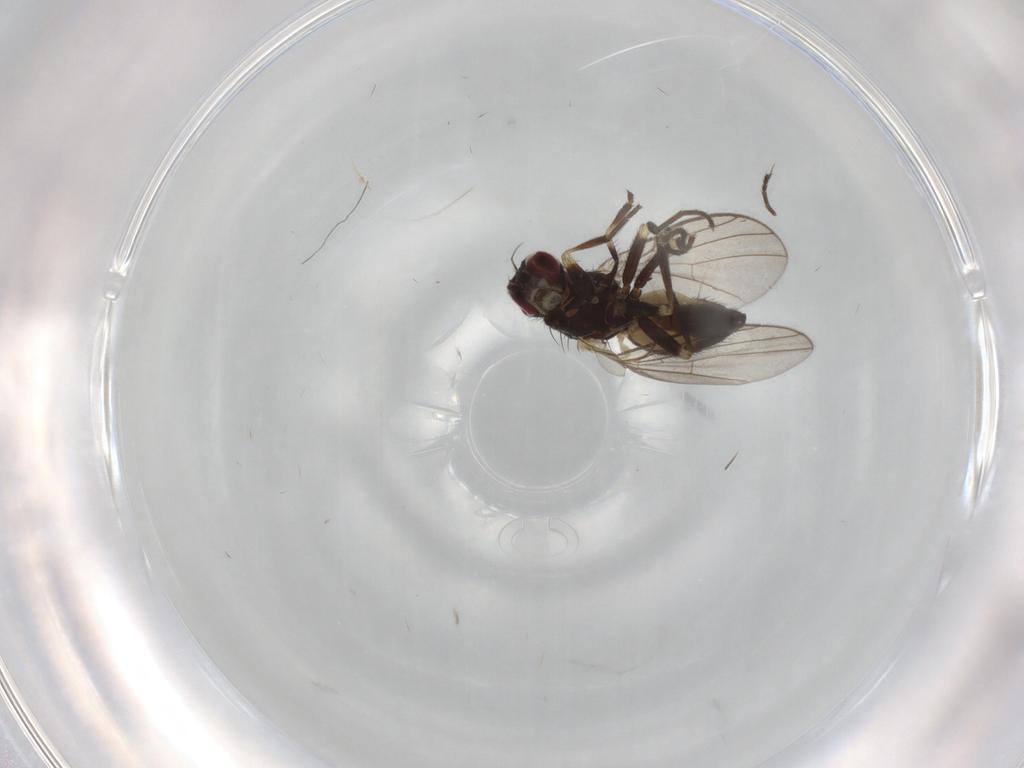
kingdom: Animalia
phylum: Arthropoda
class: Insecta
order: Diptera
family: Agromyzidae
